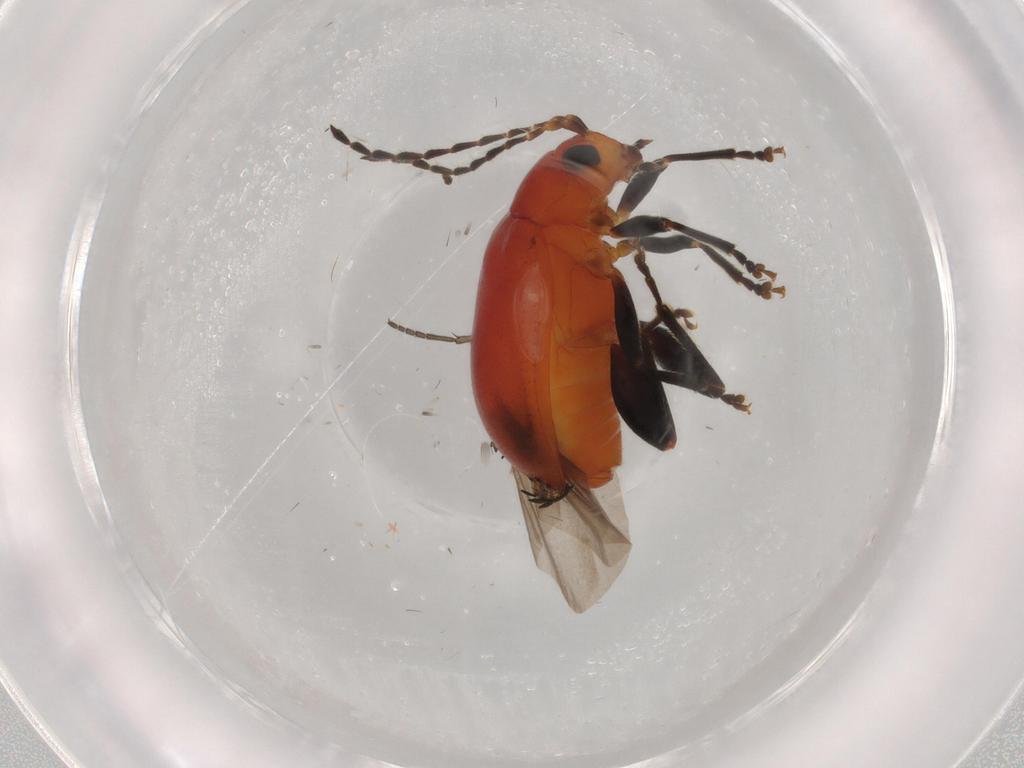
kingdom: Animalia
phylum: Arthropoda
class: Insecta
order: Coleoptera
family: Chrysomelidae
